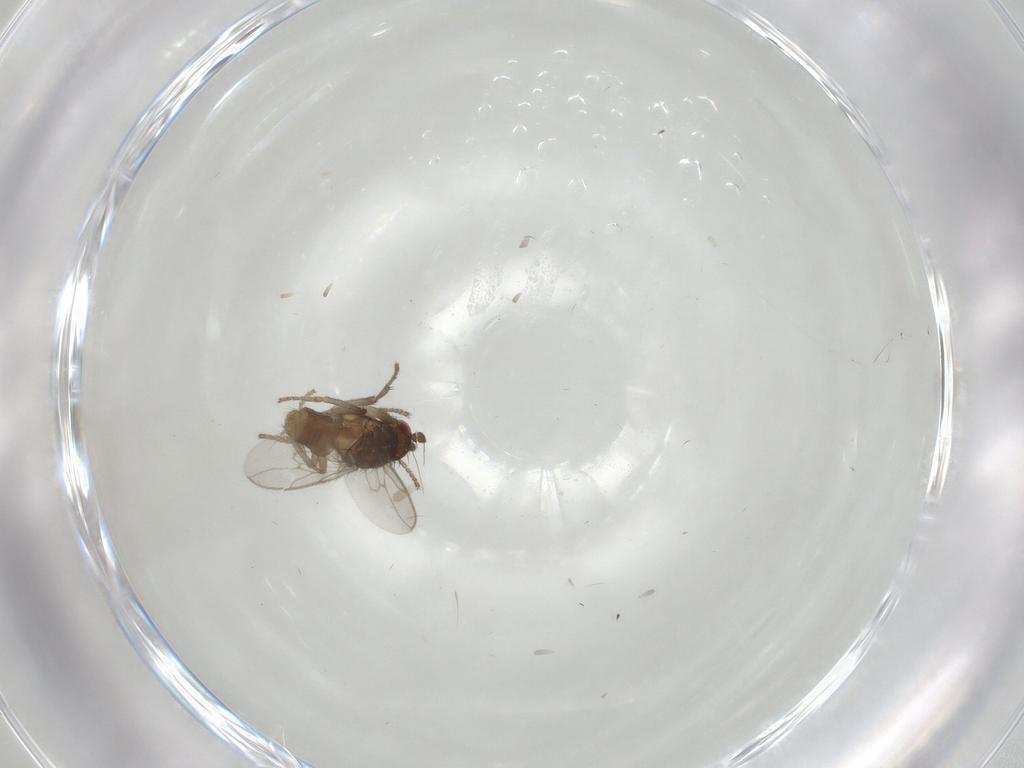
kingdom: Animalia
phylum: Arthropoda
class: Insecta
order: Diptera
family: Sphaeroceridae
